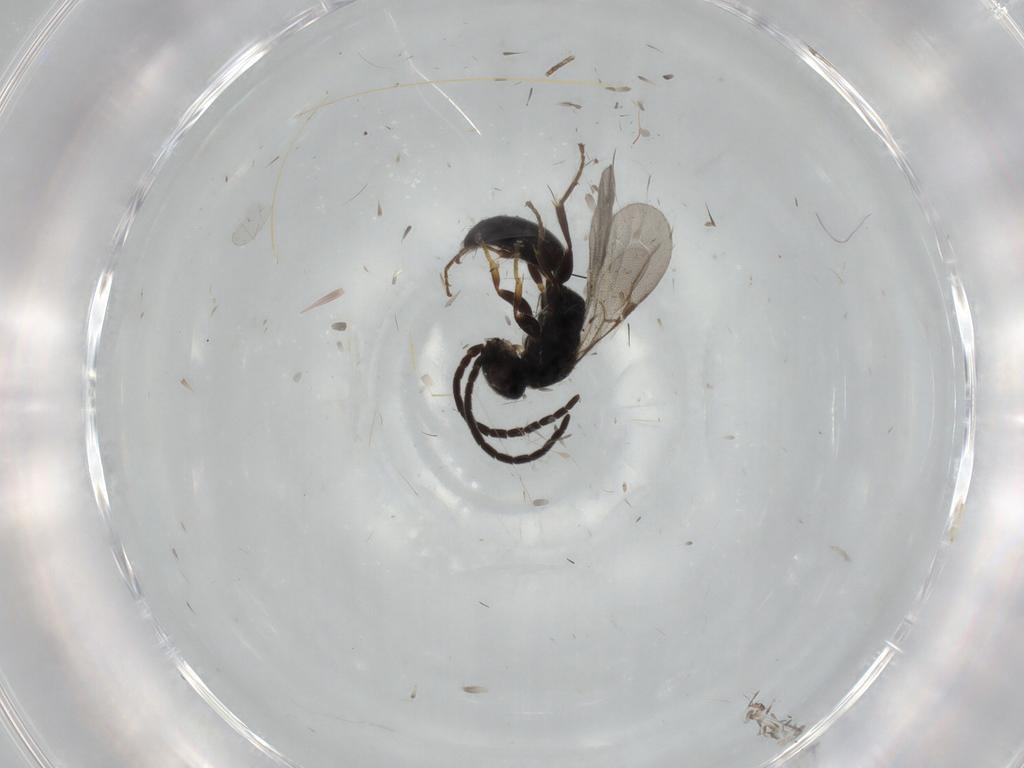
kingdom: Animalia
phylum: Arthropoda
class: Insecta
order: Hymenoptera
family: Bethylidae
